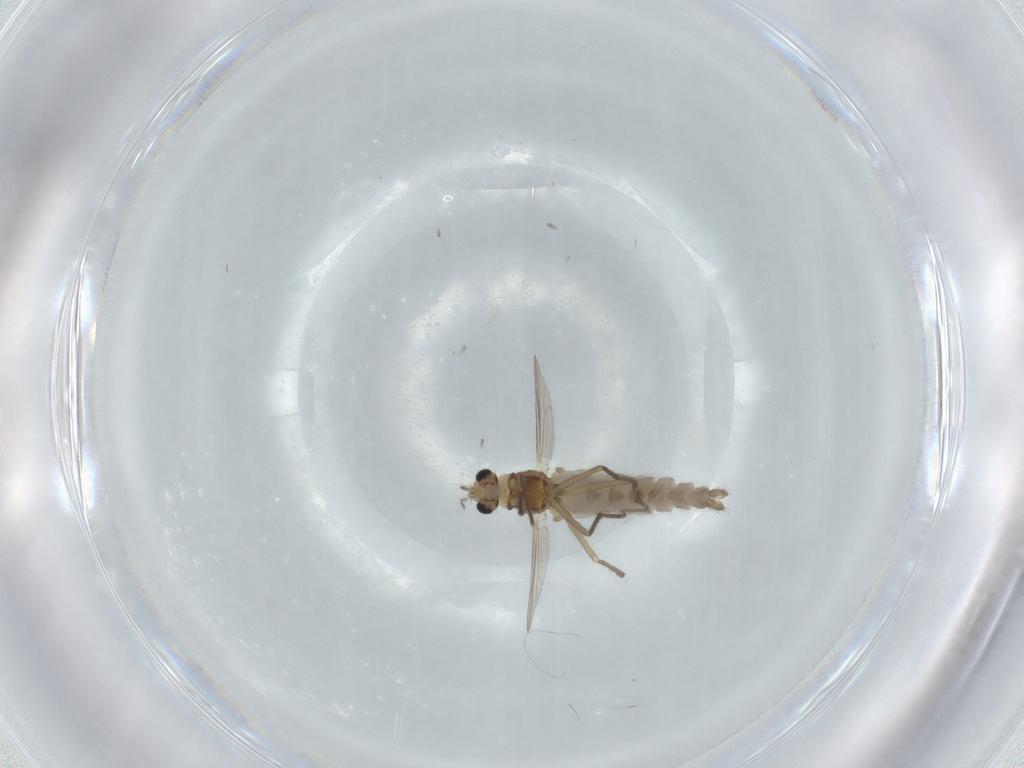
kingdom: Animalia
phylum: Arthropoda
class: Insecta
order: Diptera
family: Chironomidae
